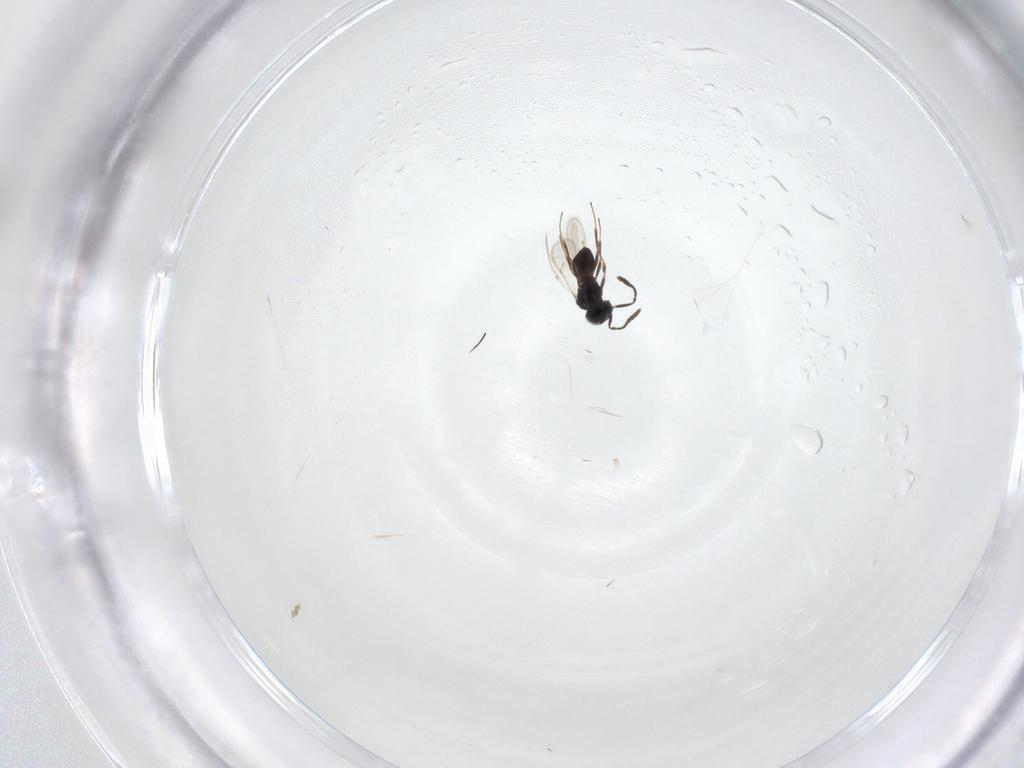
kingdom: Animalia
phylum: Arthropoda
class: Insecta
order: Hymenoptera
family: Scelionidae
